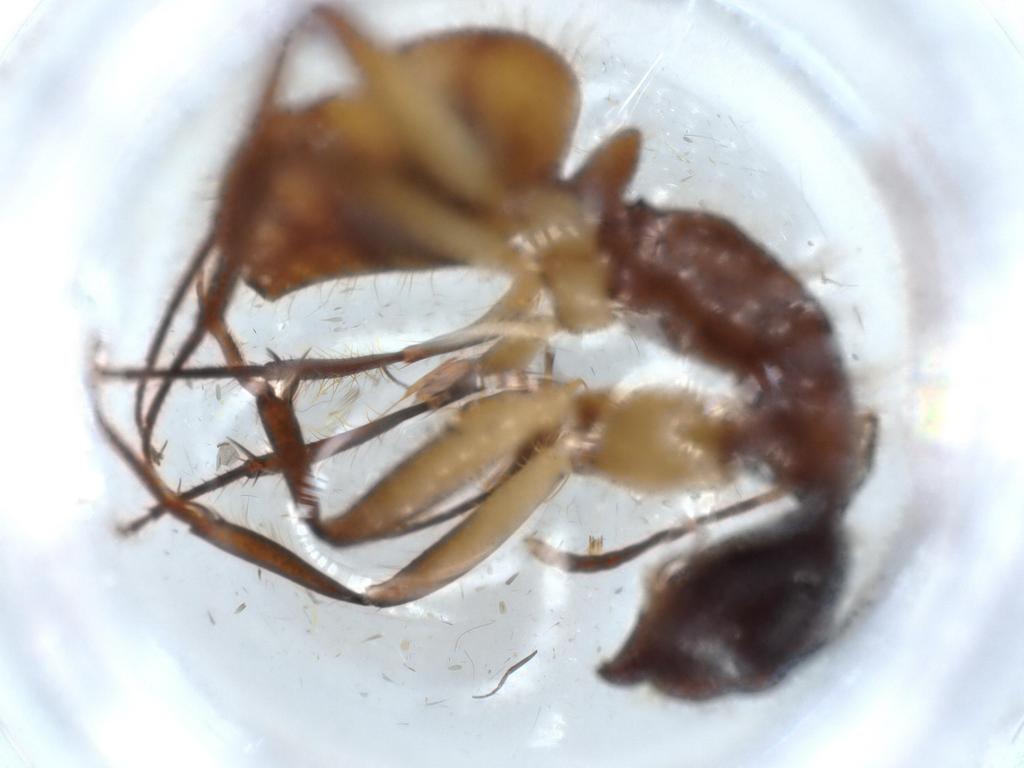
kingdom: Animalia
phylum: Arthropoda
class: Insecta
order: Hymenoptera
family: Formicidae
